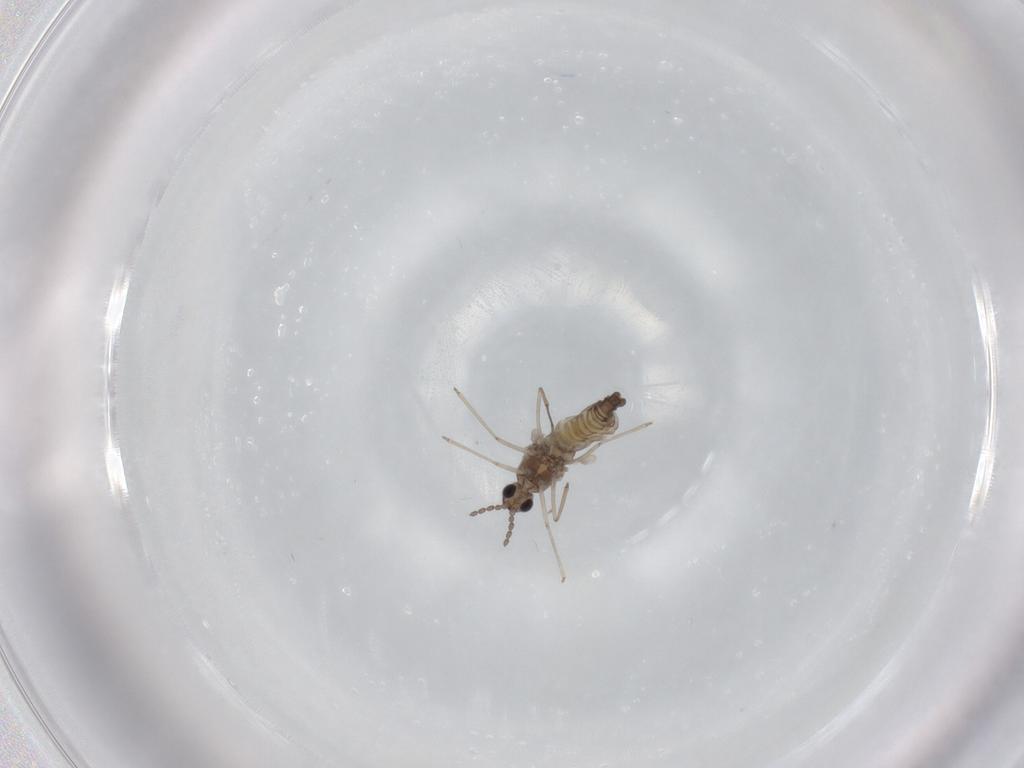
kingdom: Animalia
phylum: Arthropoda
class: Insecta
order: Diptera
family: Cecidomyiidae
